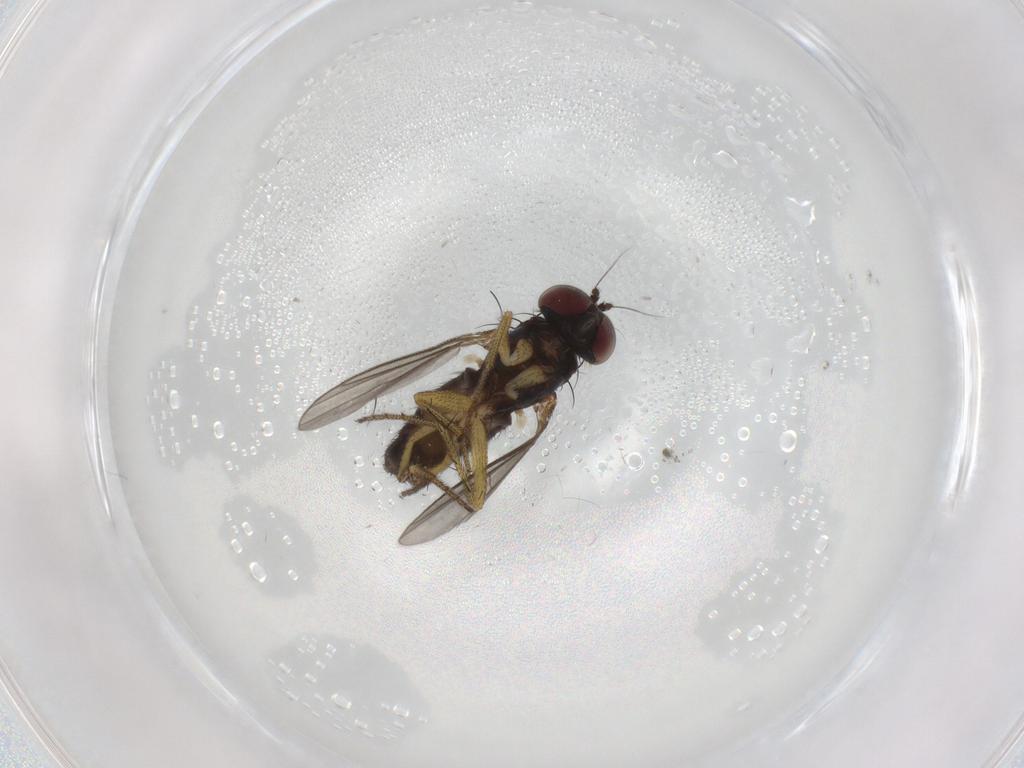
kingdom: Animalia
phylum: Arthropoda
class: Insecta
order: Diptera
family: Chironomidae
